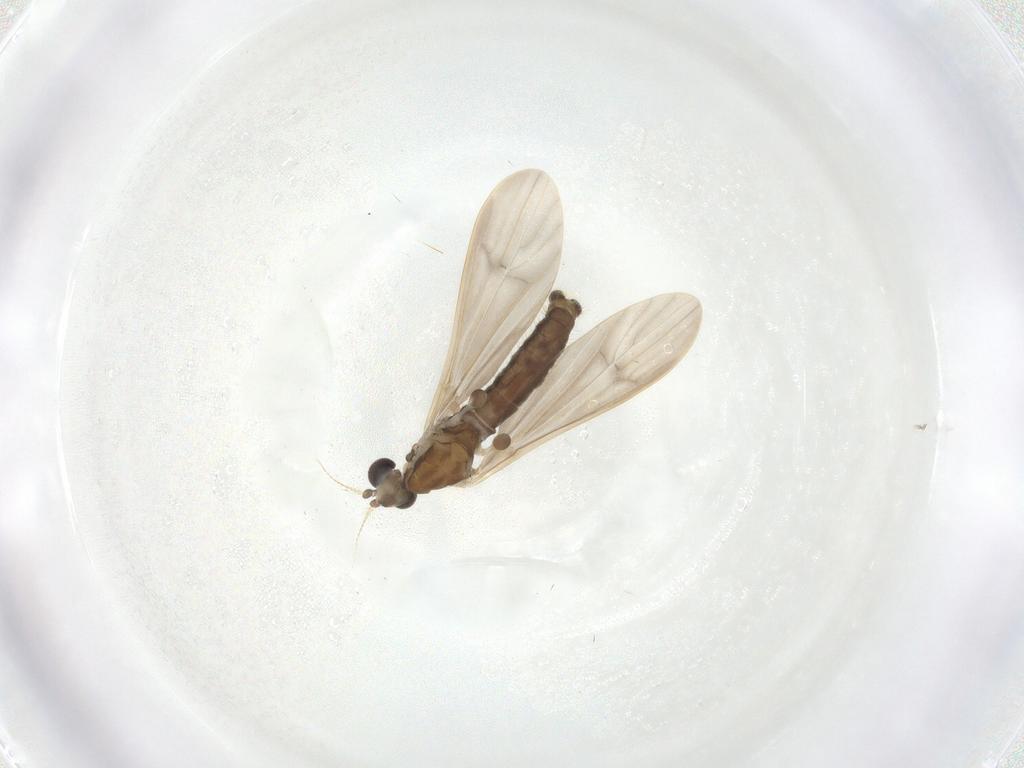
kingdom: Animalia
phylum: Arthropoda
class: Insecta
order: Diptera
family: Limoniidae
